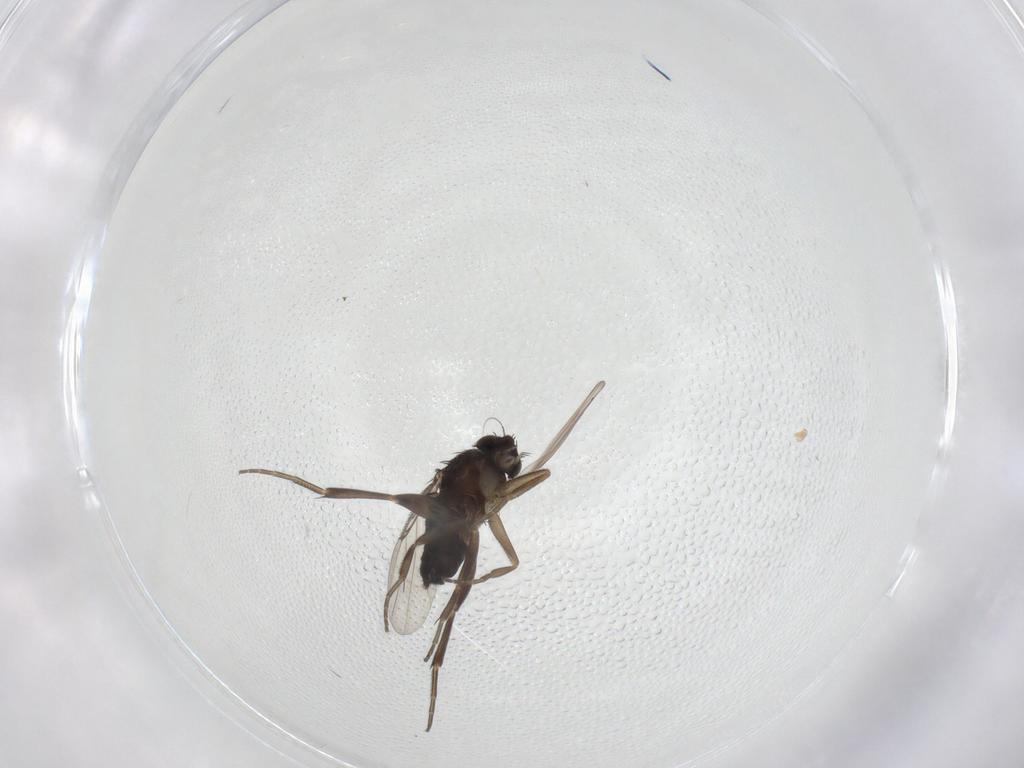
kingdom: Animalia
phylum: Arthropoda
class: Insecta
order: Diptera
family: Phoridae
